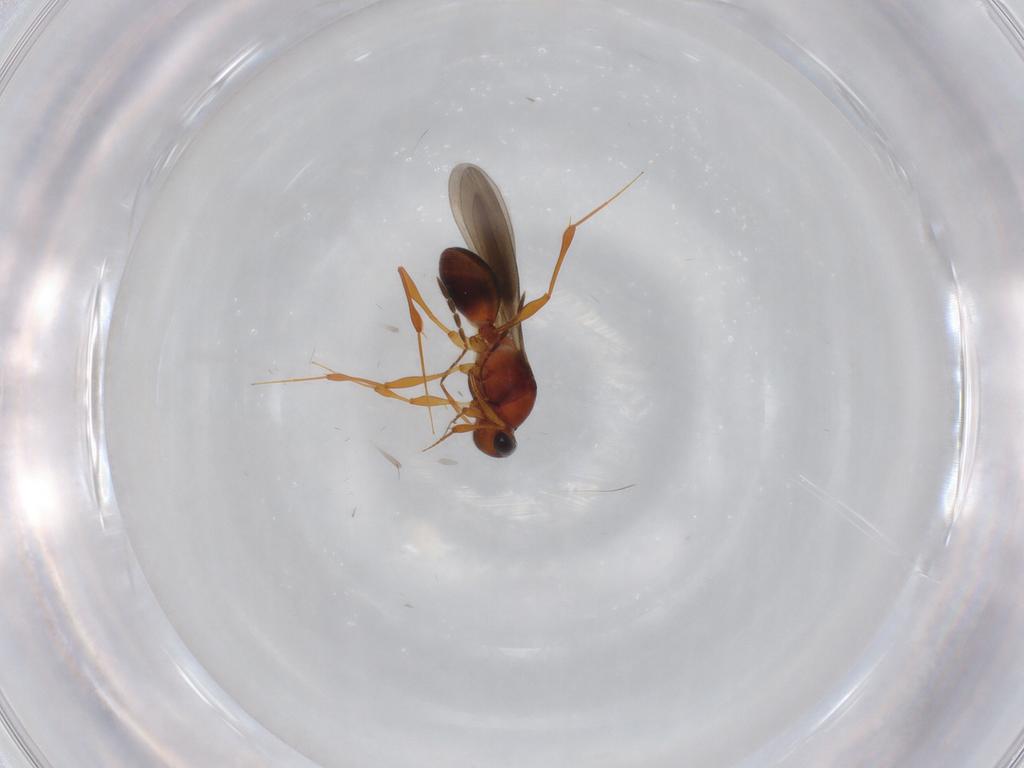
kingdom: Animalia
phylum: Arthropoda
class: Insecta
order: Hymenoptera
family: Platygastridae
